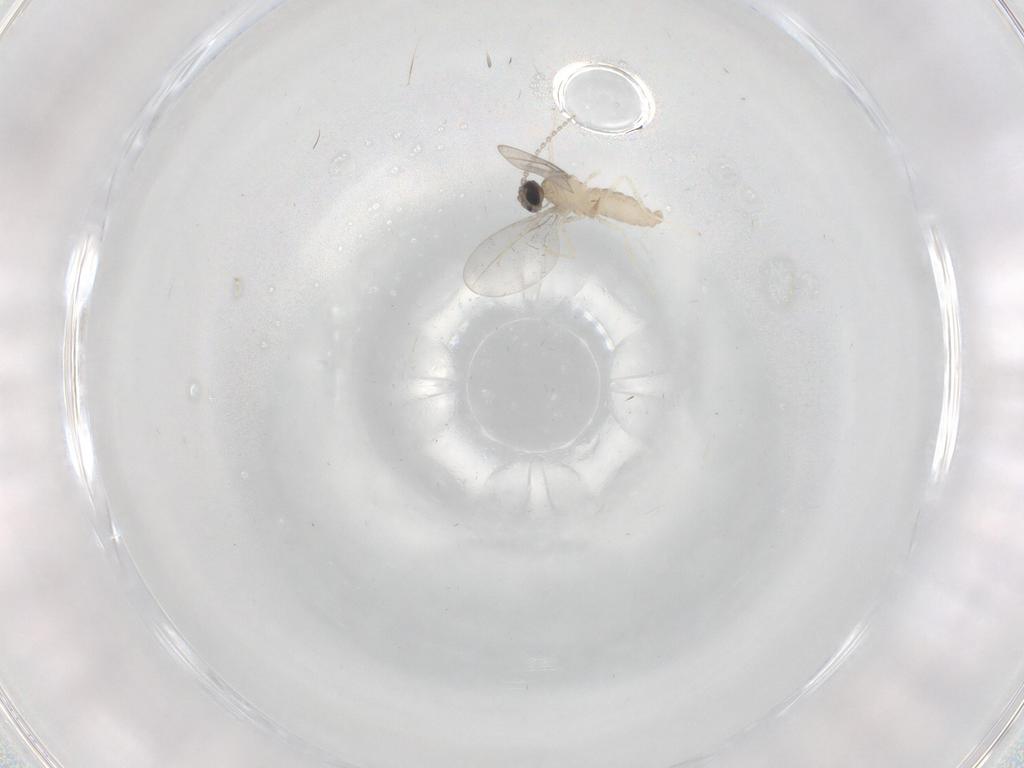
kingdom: Animalia
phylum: Arthropoda
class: Insecta
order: Diptera
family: Cecidomyiidae
